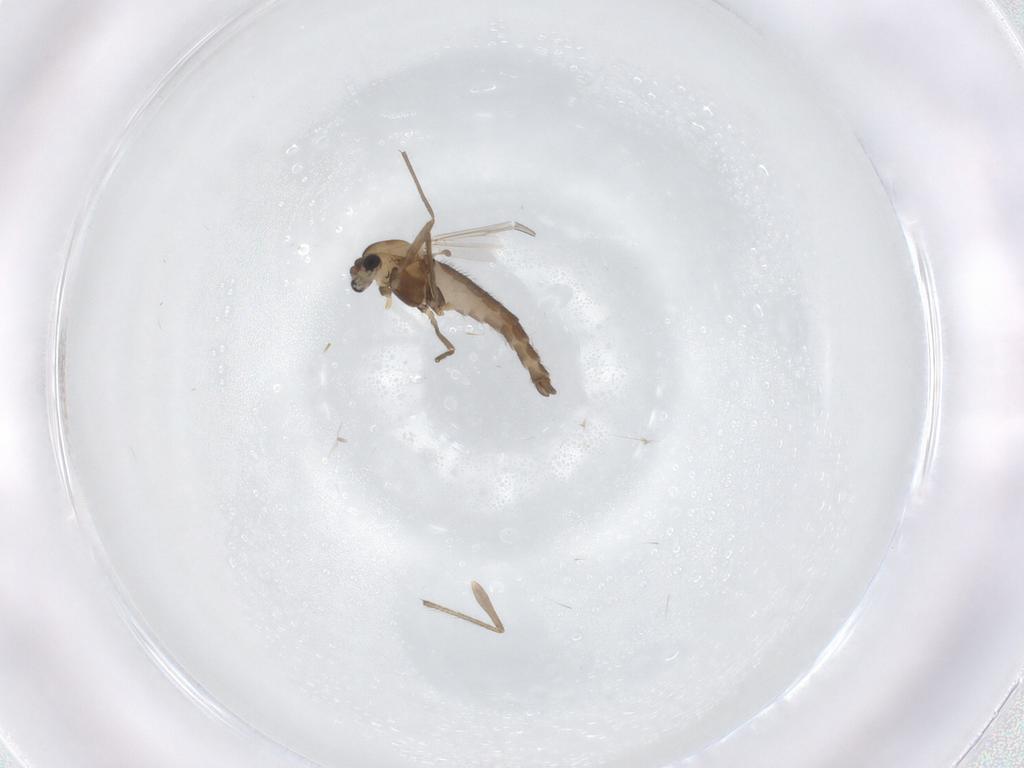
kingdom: Animalia
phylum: Arthropoda
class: Insecta
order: Diptera
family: Chironomidae
